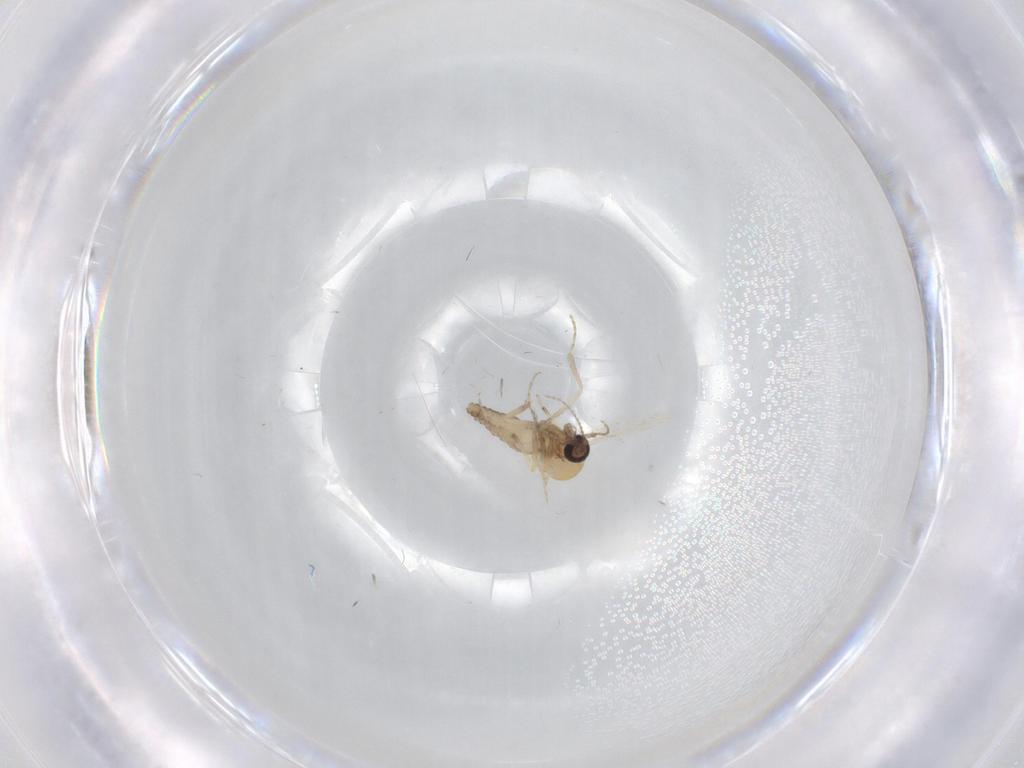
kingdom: Animalia
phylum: Arthropoda
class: Insecta
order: Diptera
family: Ceratopogonidae
